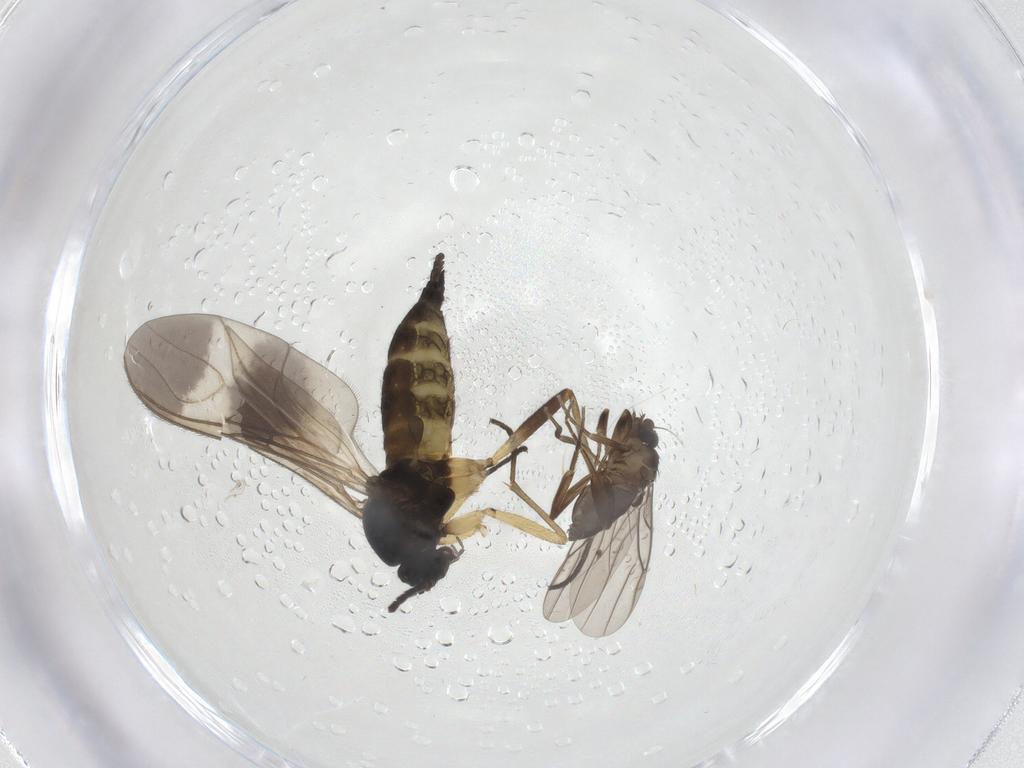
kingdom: Animalia
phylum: Arthropoda
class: Insecta
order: Diptera
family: Sciaridae
